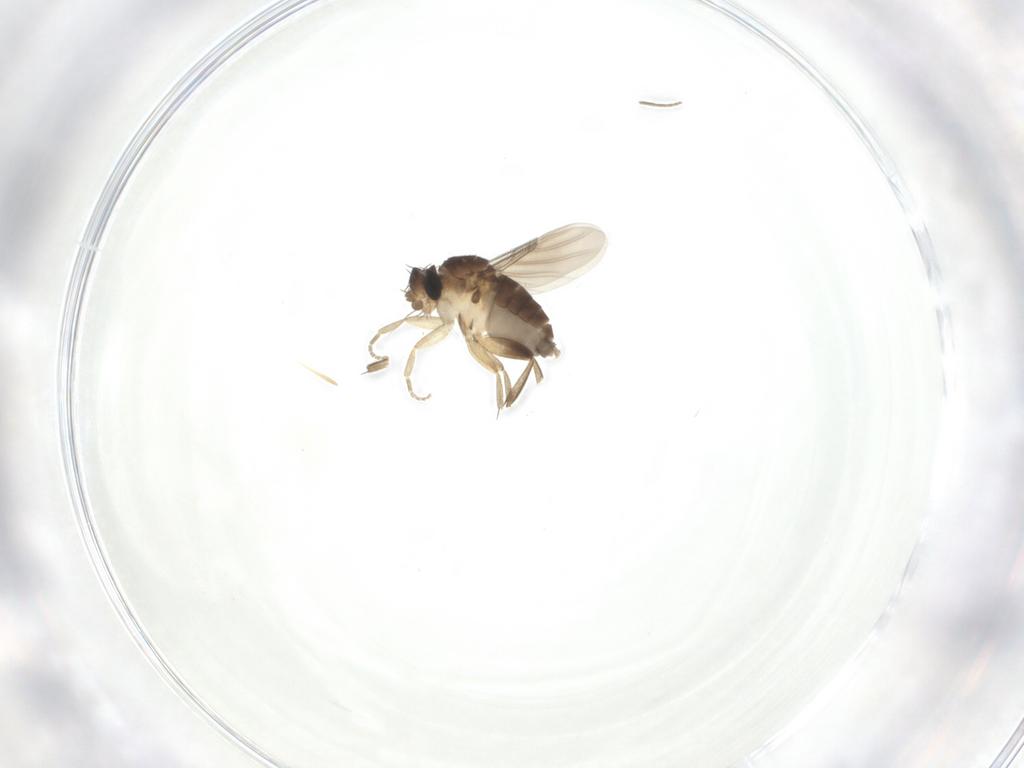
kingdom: Animalia
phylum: Arthropoda
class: Insecta
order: Diptera
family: Phoridae
